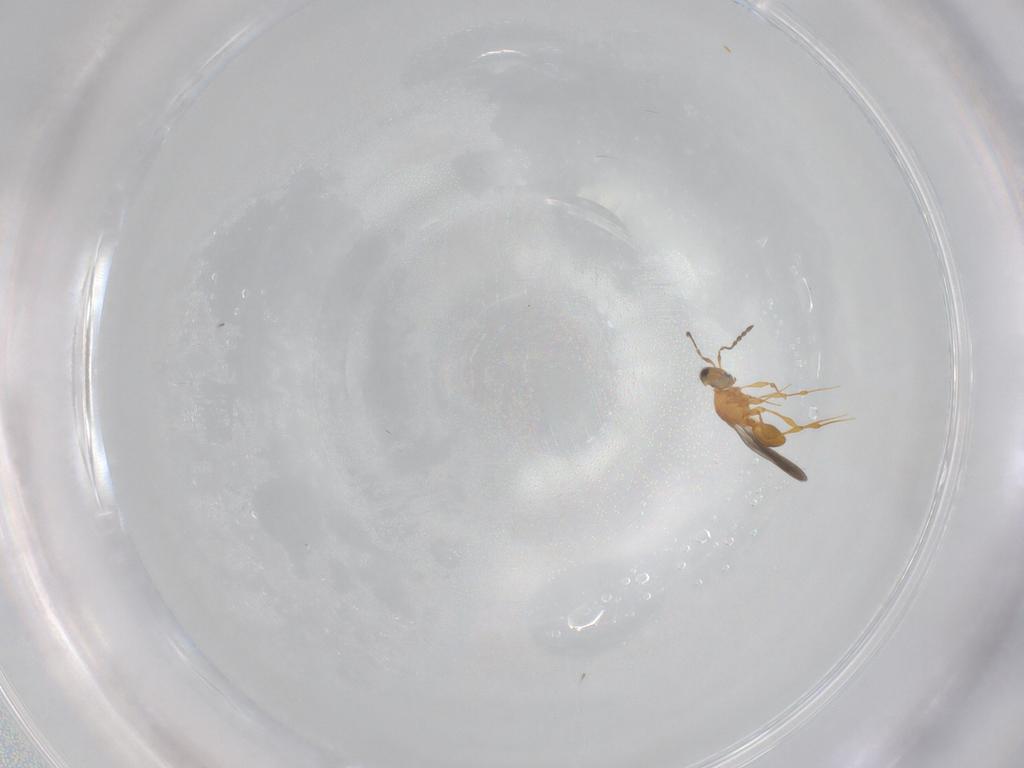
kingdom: Animalia
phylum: Arthropoda
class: Insecta
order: Hymenoptera
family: Platygastridae
